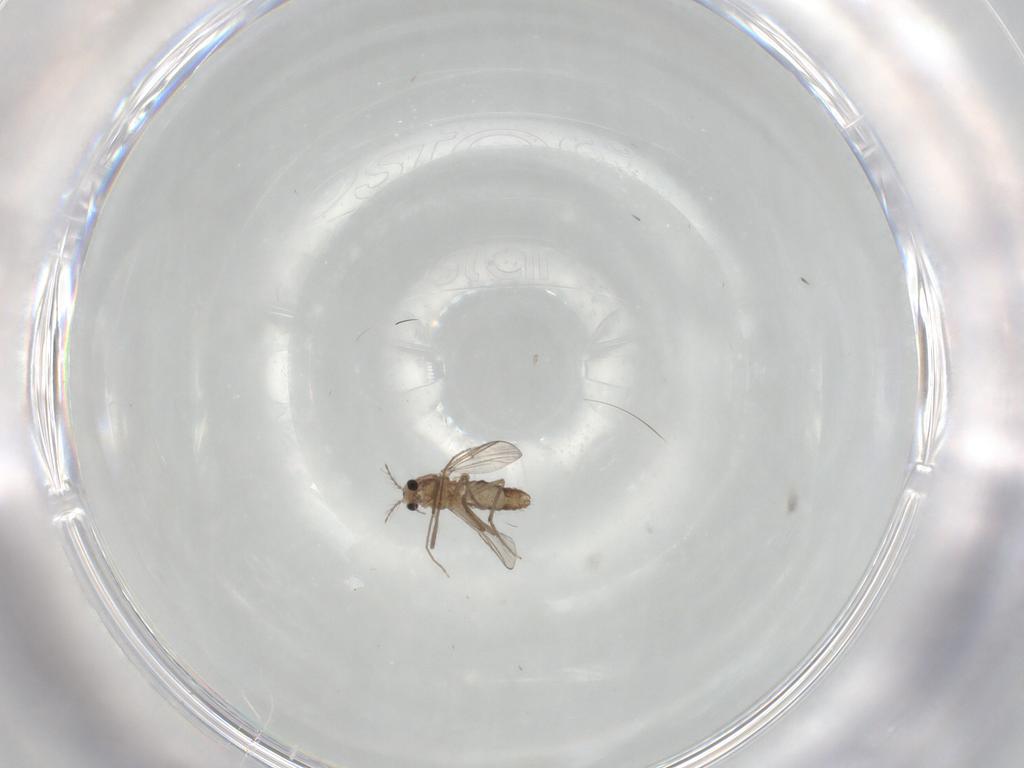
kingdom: Animalia
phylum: Arthropoda
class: Insecta
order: Diptera
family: Chironomidae
